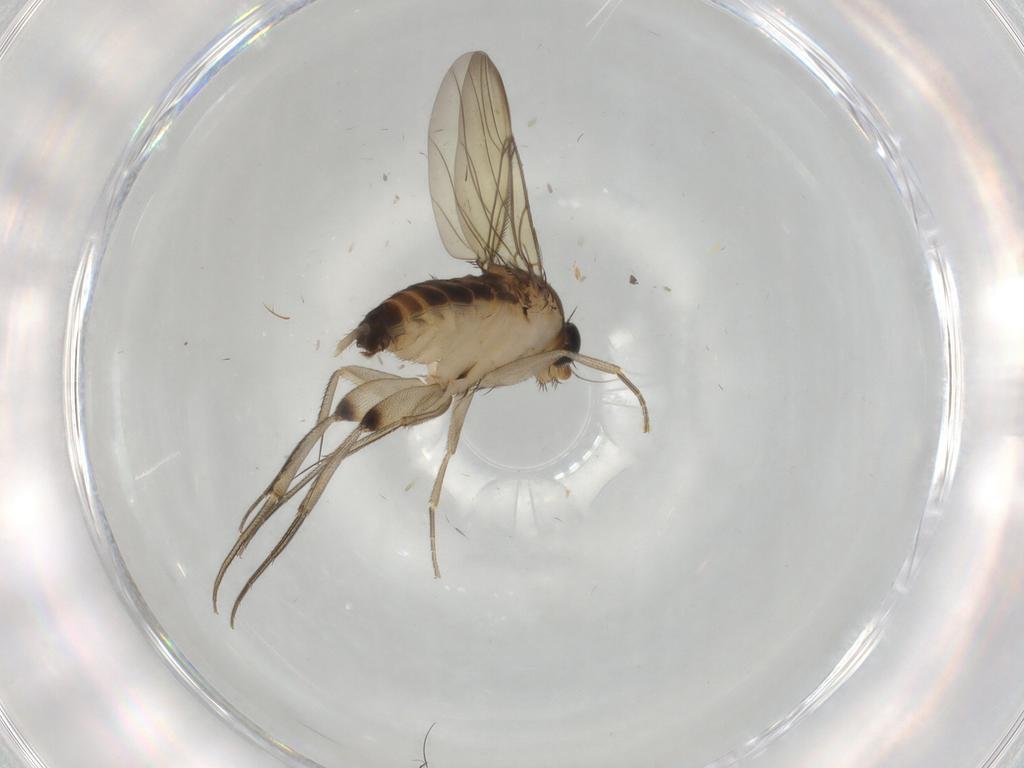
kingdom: Animalia
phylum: Arthropoda
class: Insecta
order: Diptera
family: Phoridae
